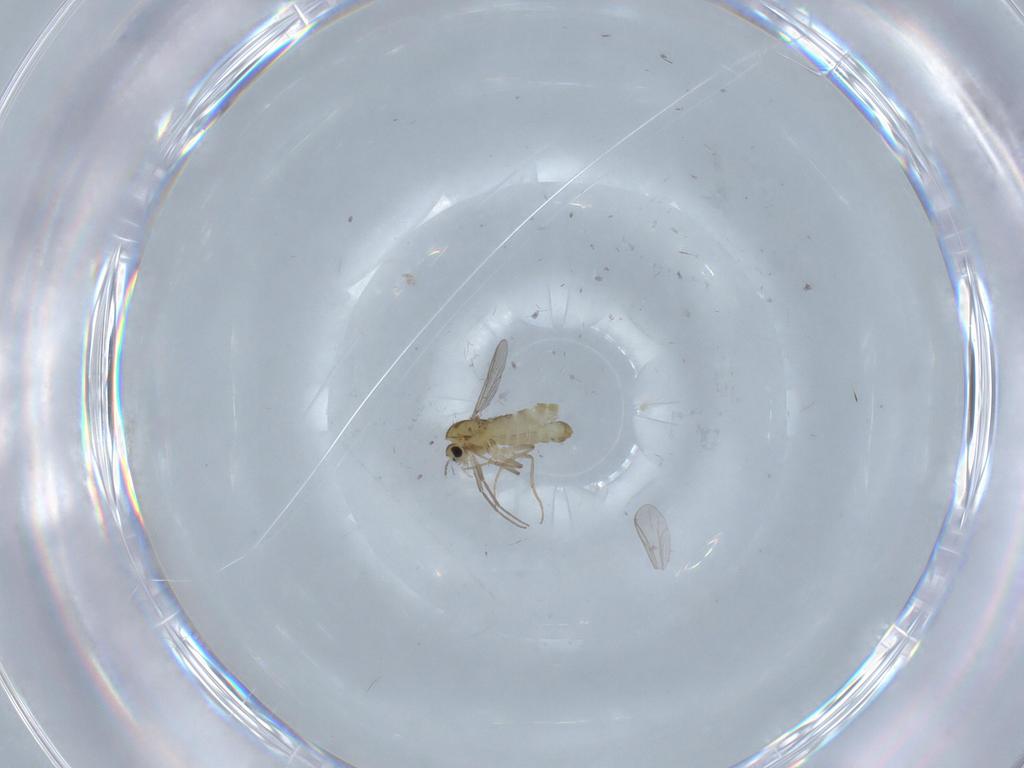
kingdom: Animalia
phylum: Arthropoda
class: Insecta
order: Diptera
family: Chironomidae
